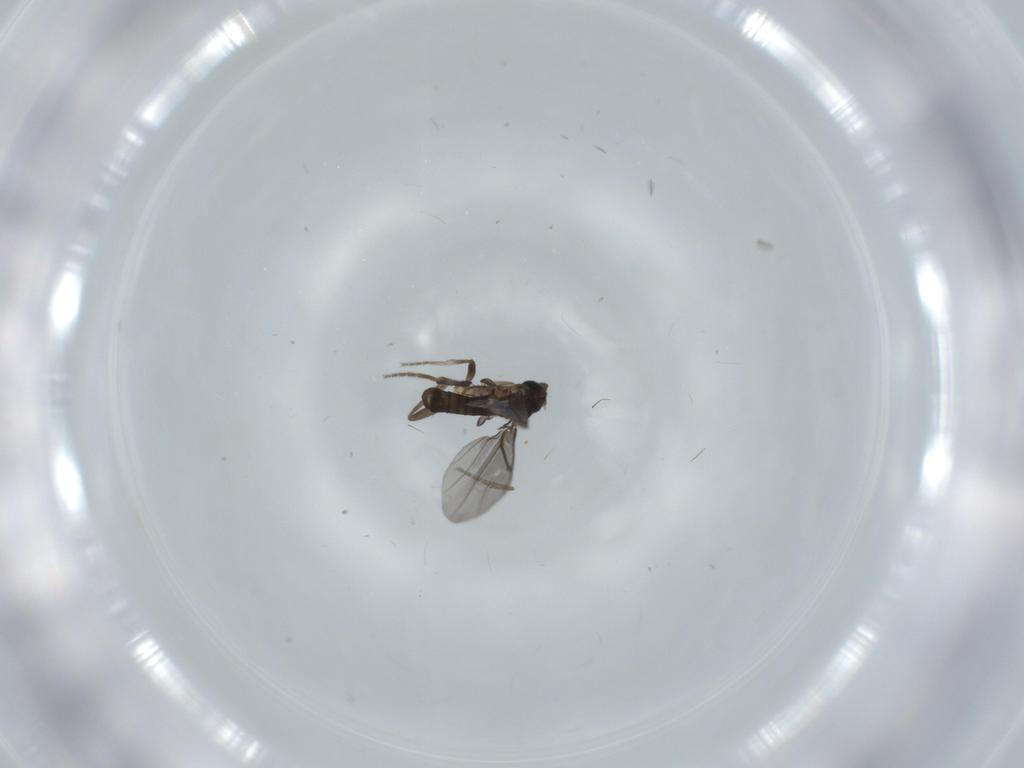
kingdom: Animalia
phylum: Arthropoda
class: Insecta
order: Diptera
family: Phoridae
